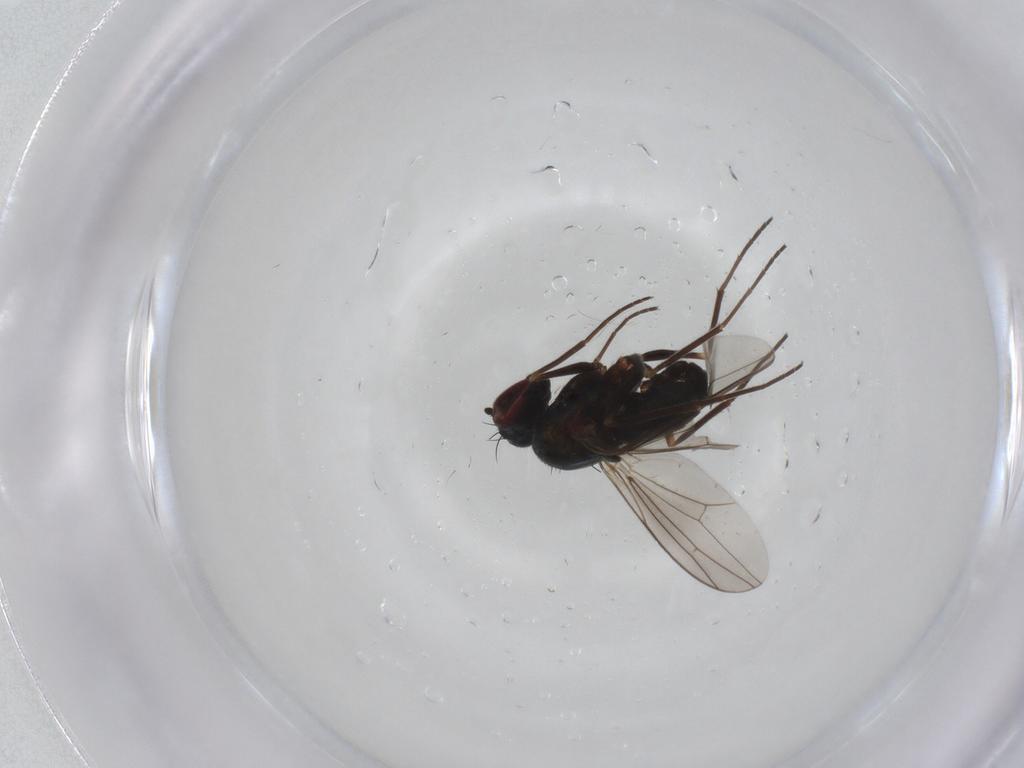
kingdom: Animalia
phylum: Arthropoda
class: Insecta
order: Diptera
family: Chironomidae
